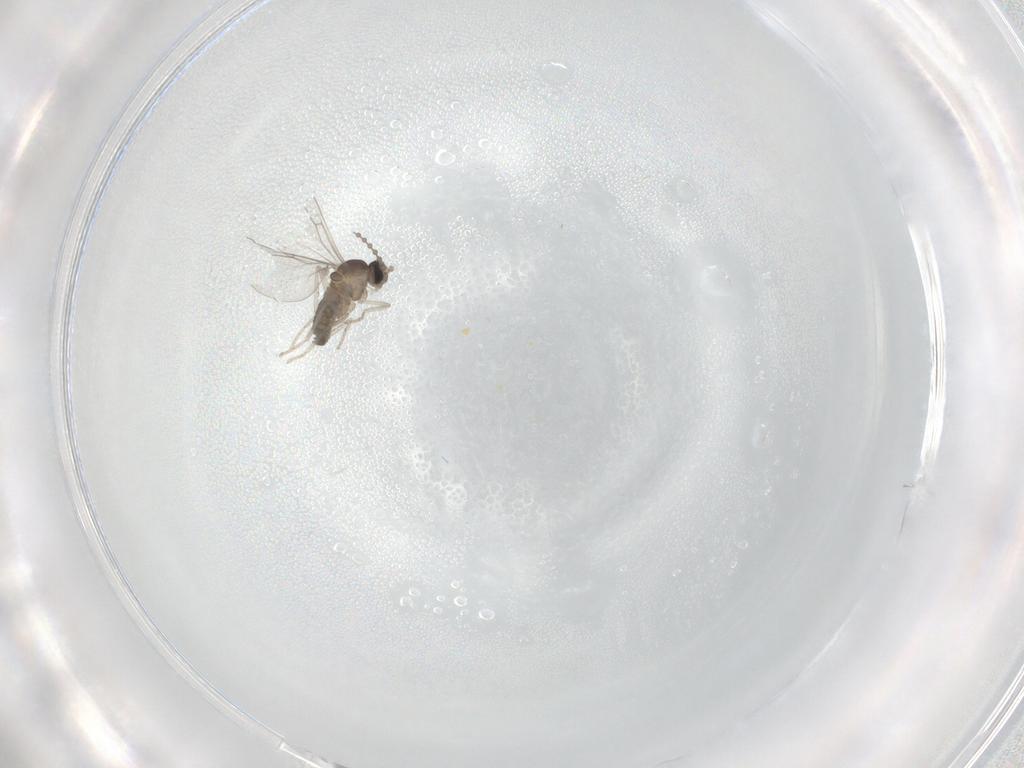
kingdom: Animalia
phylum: Arthropoda
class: Insecta
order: Diptera
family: Cecidomyiidae
